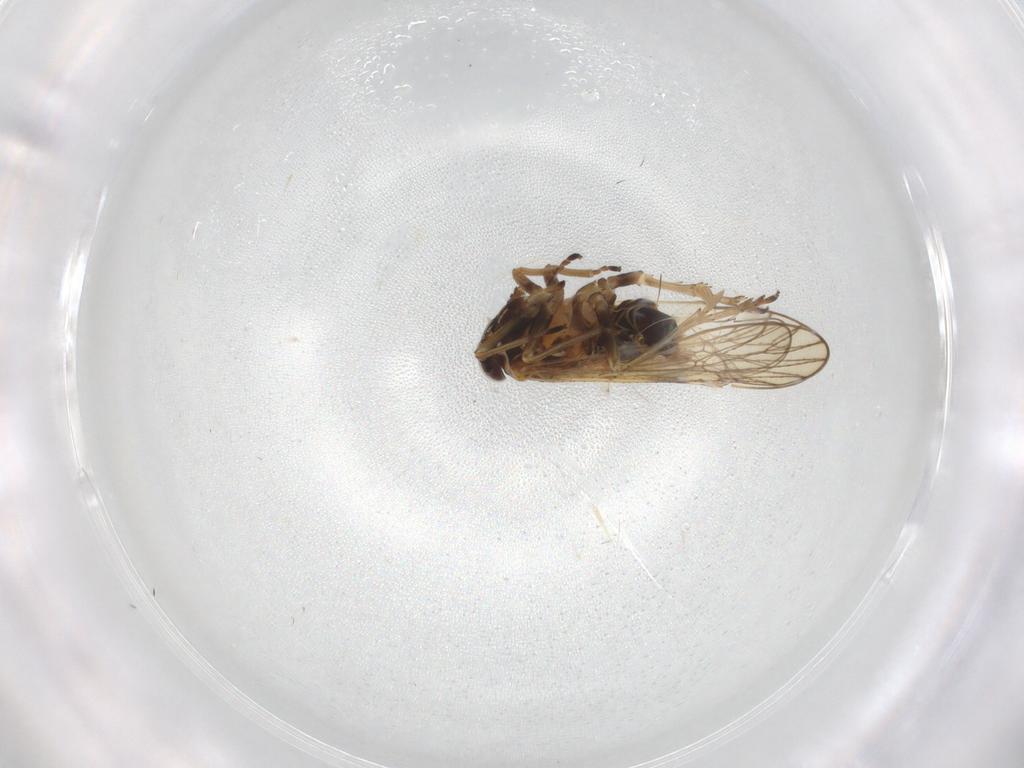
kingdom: Animalia
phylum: Arthropoda
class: Insecta
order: Hemiptera
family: Delphacidae
